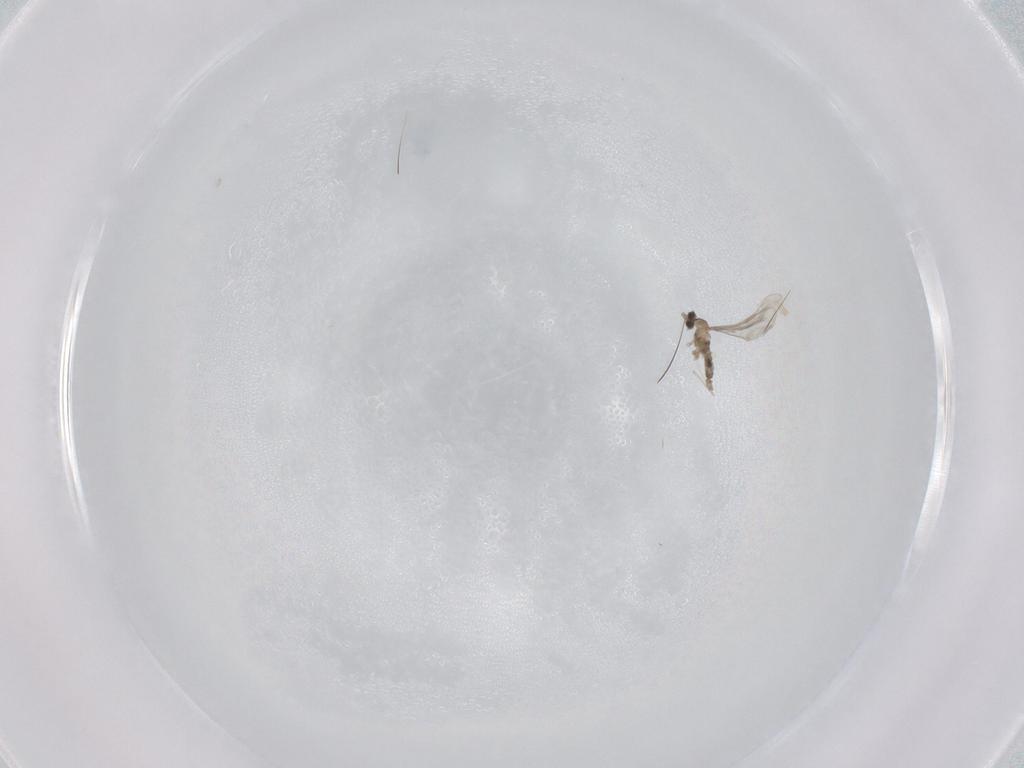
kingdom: Animalia
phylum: Arthropoda
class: Insecta
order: Diptera
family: Cecidomyiidae
